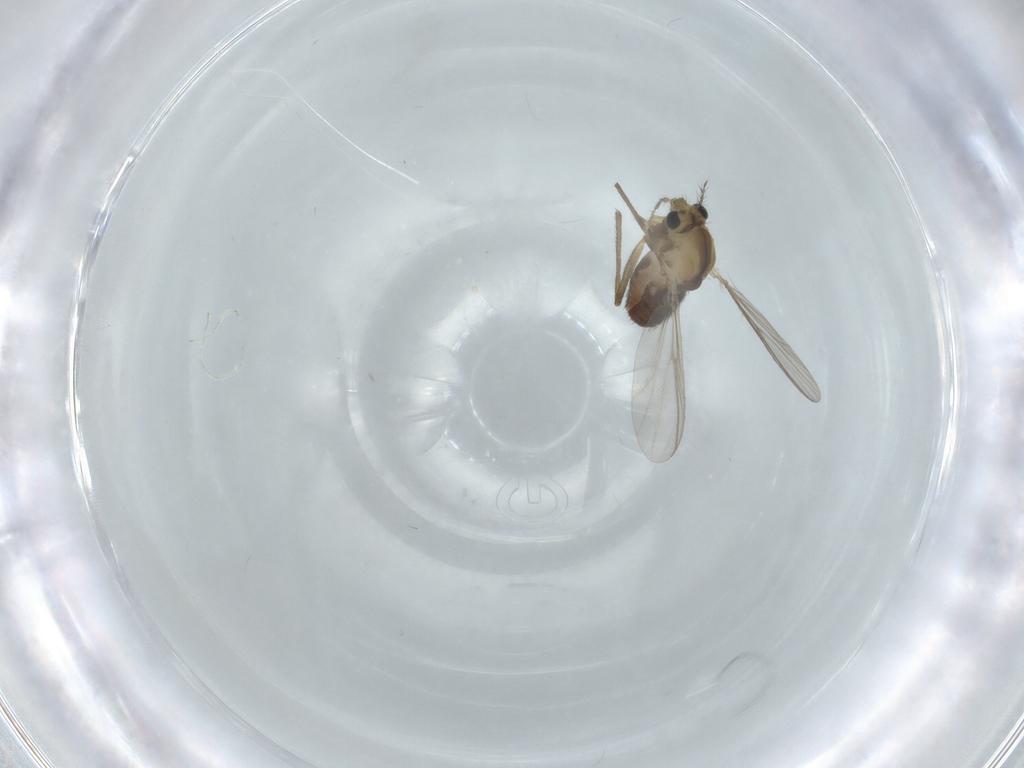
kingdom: Animalia
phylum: Arthropoda
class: Insecta
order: Diptera
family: Chironomidae
